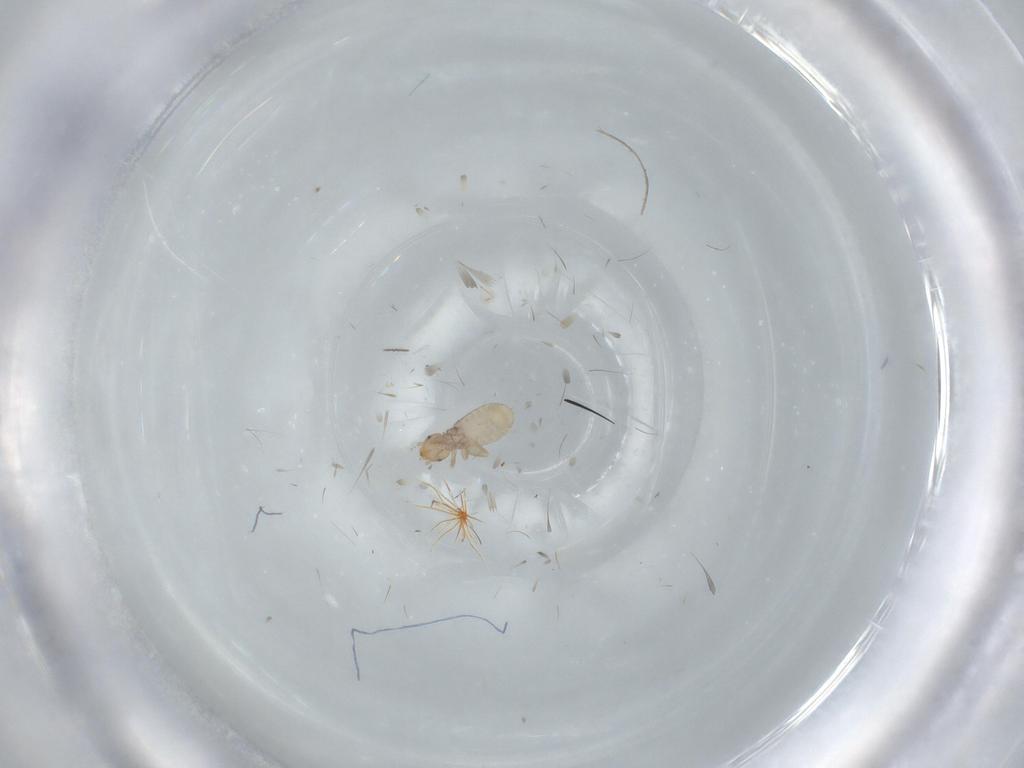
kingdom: Animalia
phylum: Arthropoda
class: Insecta
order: Psocodea
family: Liposcelididae
